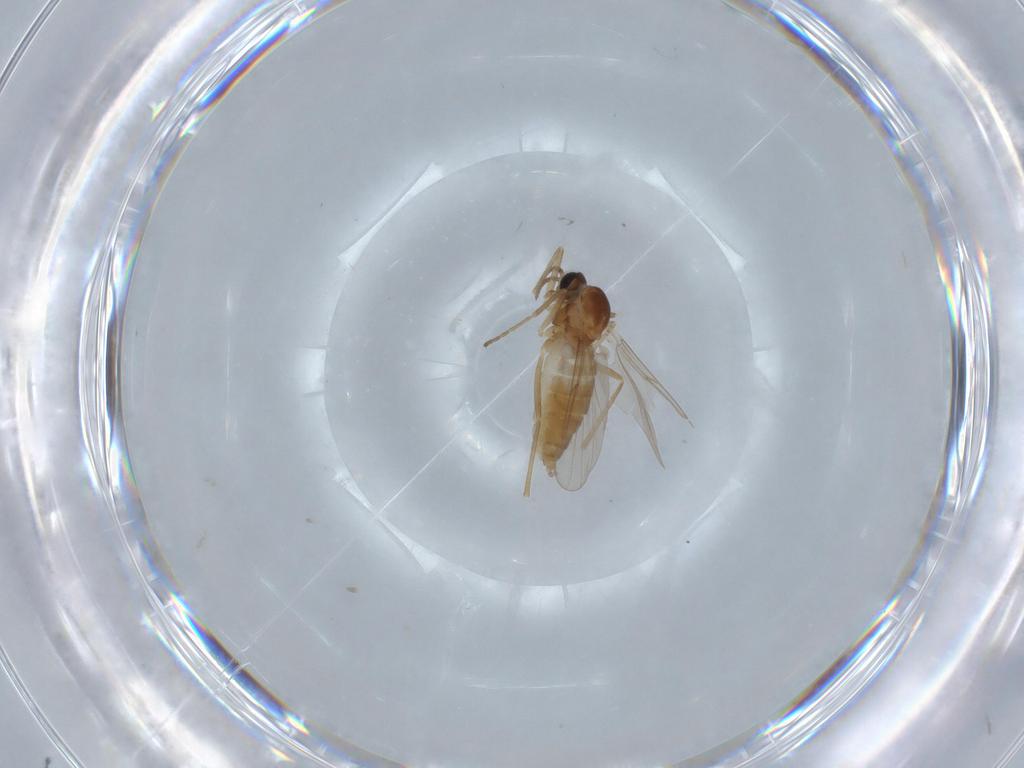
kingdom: Animalia
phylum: Arthropoda
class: Insecta
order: Diptera
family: Cecidomyiidae
